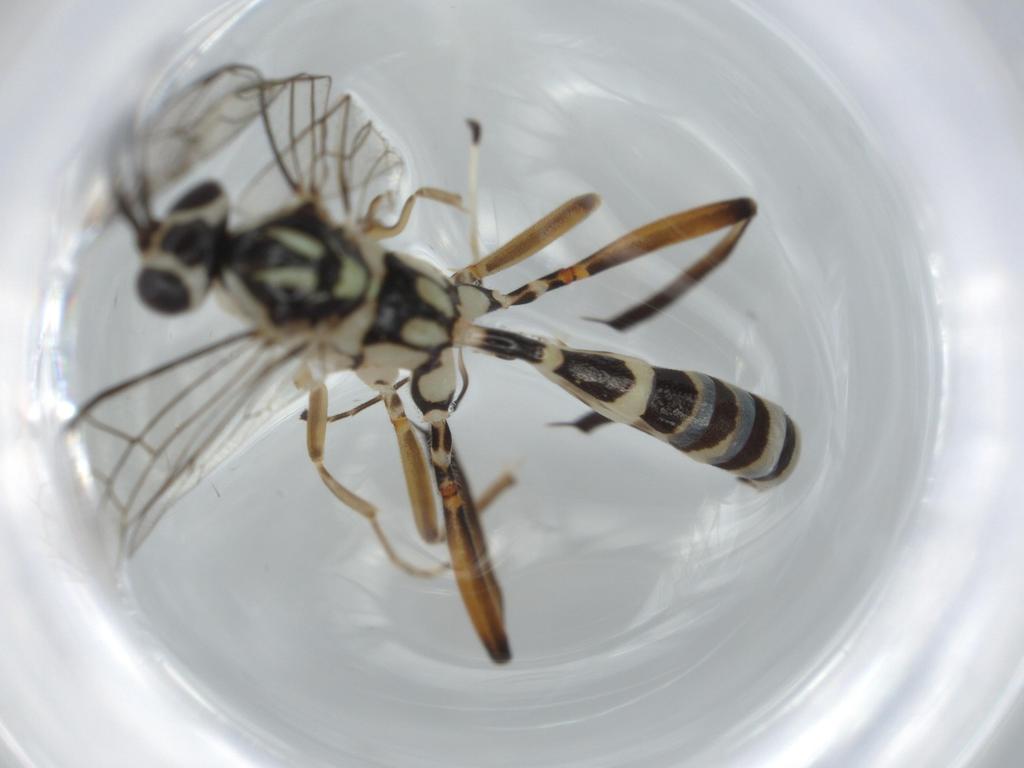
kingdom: Animalia
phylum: Arthropoda
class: Insecta
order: Hymenoptera
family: Aphelinidae
